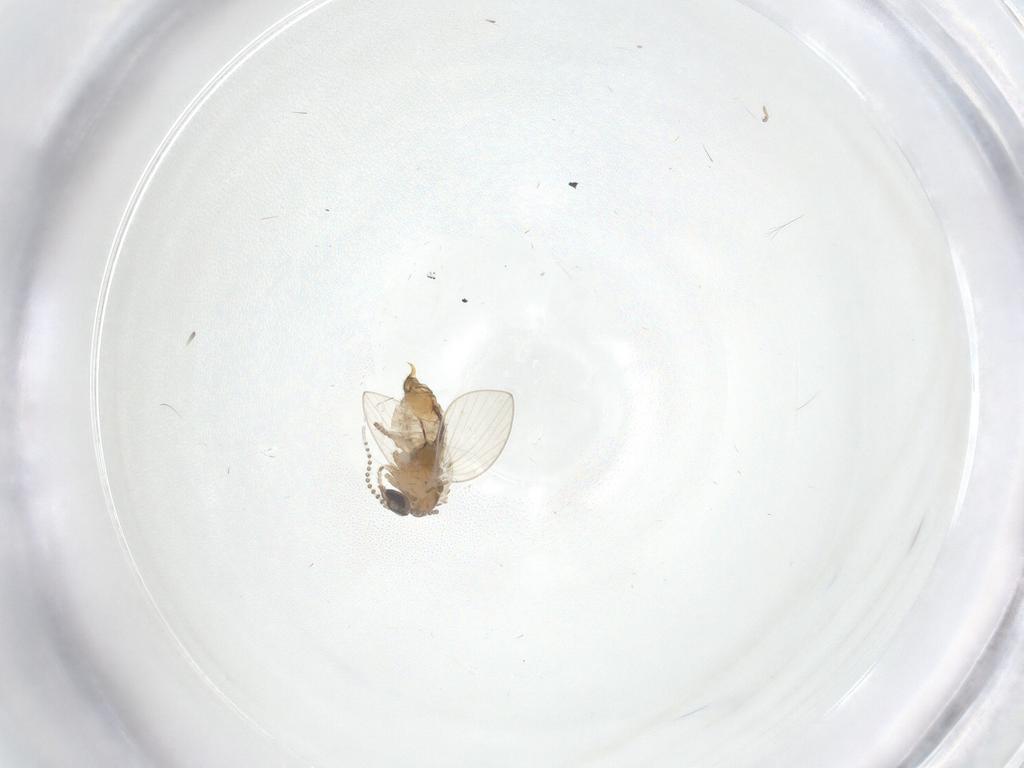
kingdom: Animalia
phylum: Arthropoda
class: Insecta
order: Diptera
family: Psychodidae
